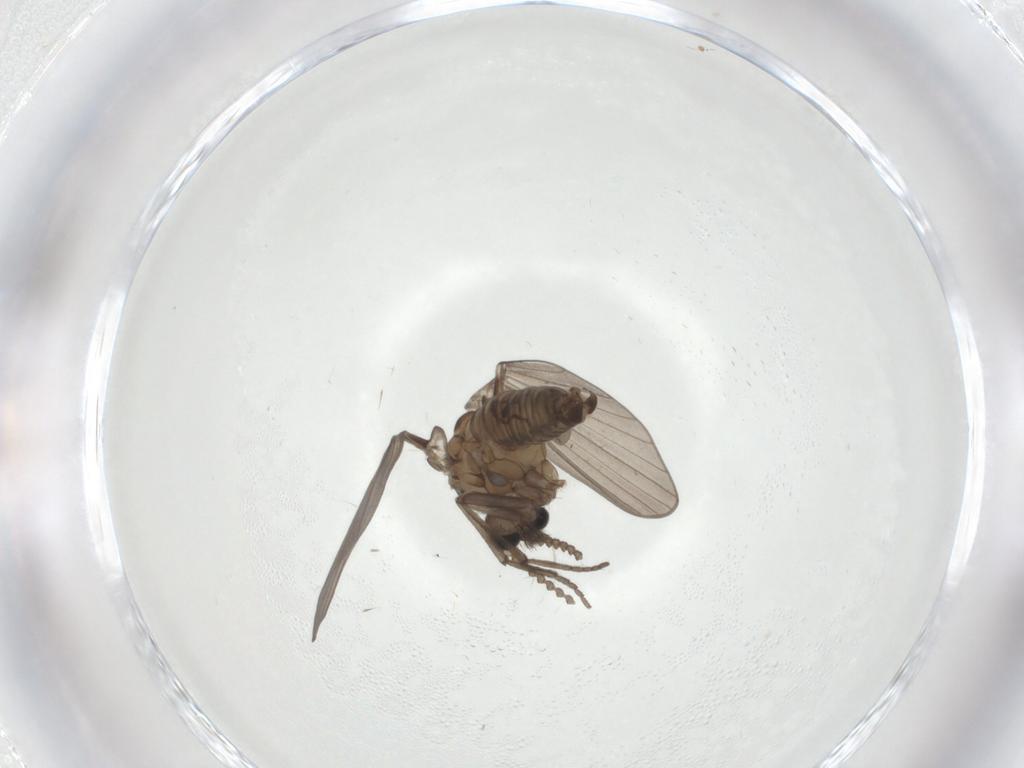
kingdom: Animalia
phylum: Arthropoda
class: Insecta
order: Diptera
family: Psychodidae
